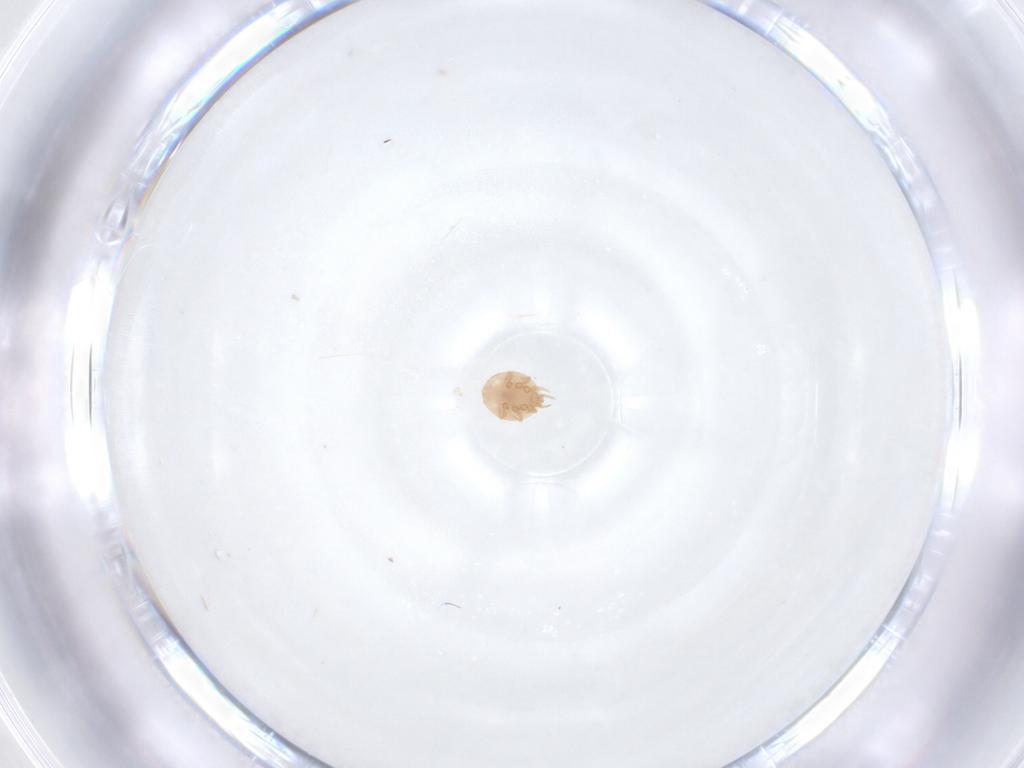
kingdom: Animalia
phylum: Arthropoda
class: Arachnida
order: Mesostigmata
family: Trematuridae
